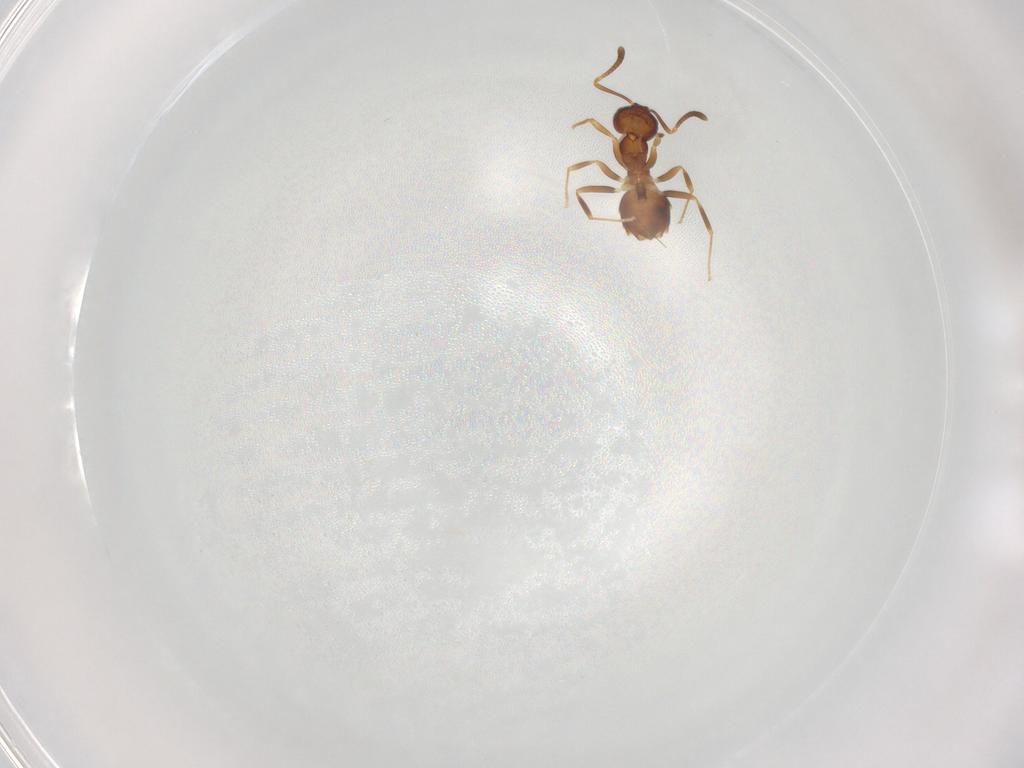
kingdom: Animalia
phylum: Arthropoda
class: Insecta
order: Hymenoptera
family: Formicidae
